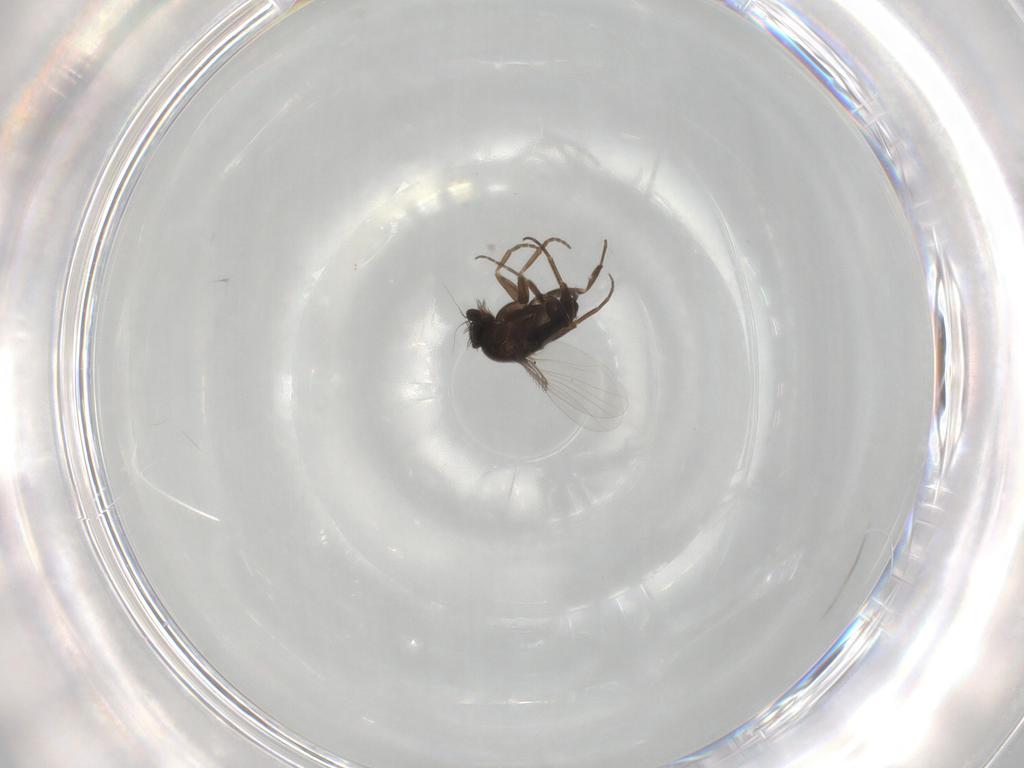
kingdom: Animalia
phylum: Arthropoda
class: Insecta
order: Diptera
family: Phoridae
